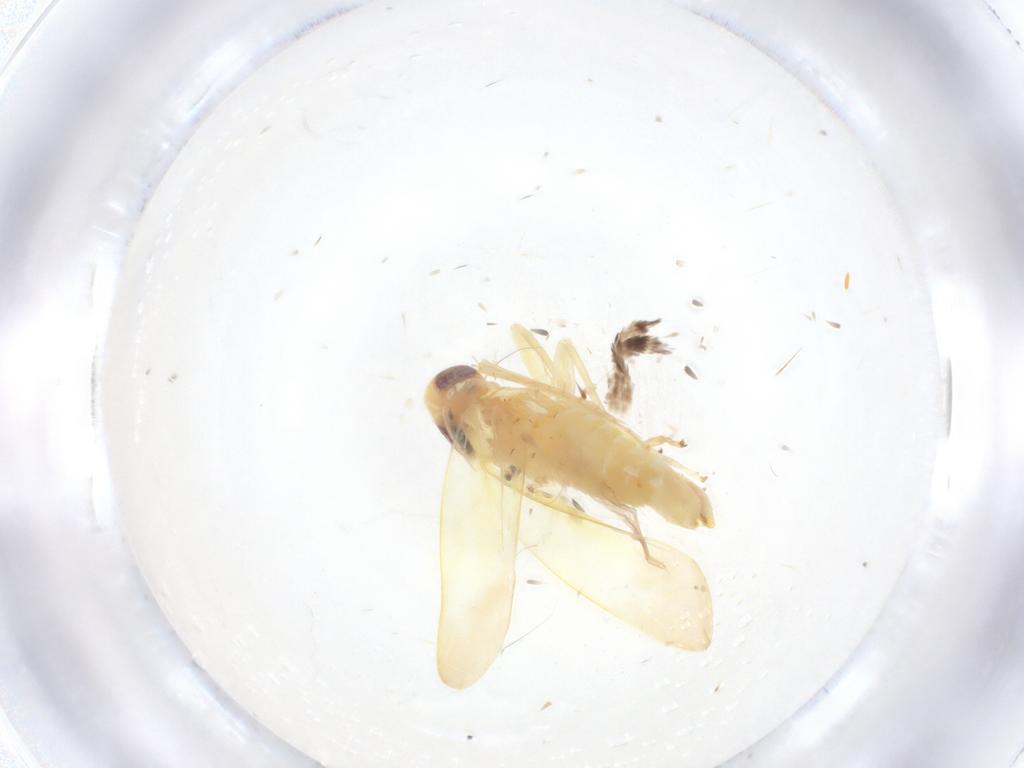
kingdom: Animalia
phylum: Arthropoda
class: Insecta
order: Hemiptera
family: Cicadellidae
